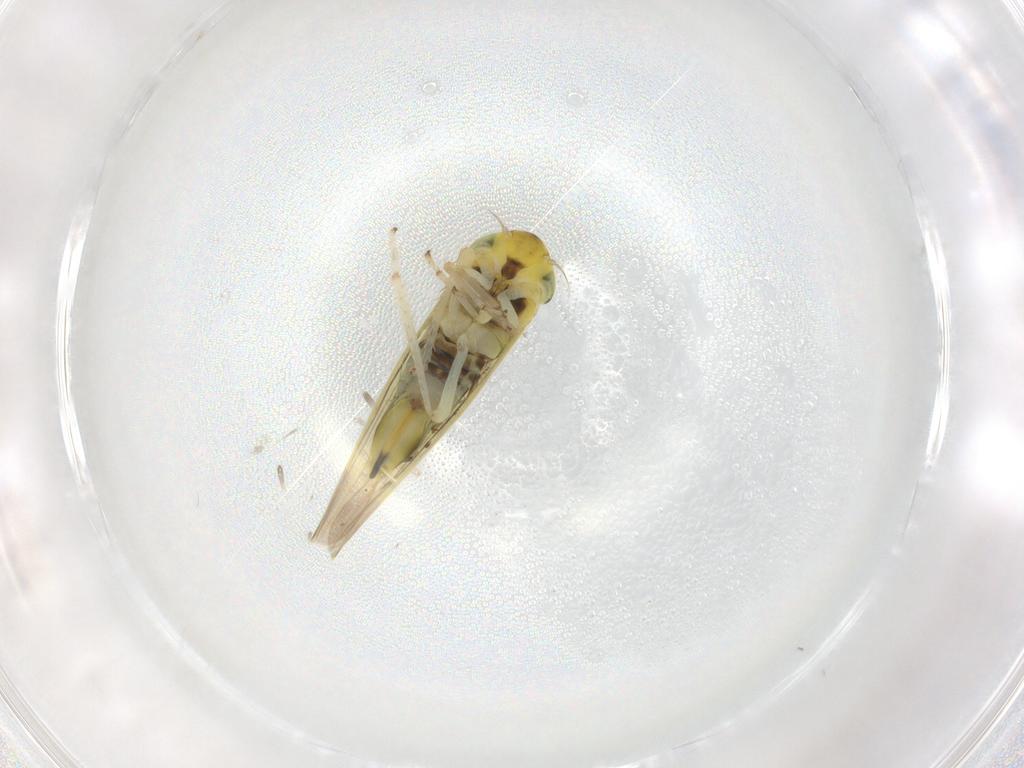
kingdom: Animalia
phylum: Arthropoda
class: Insecta
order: Hemiptera
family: Cicadellidae
